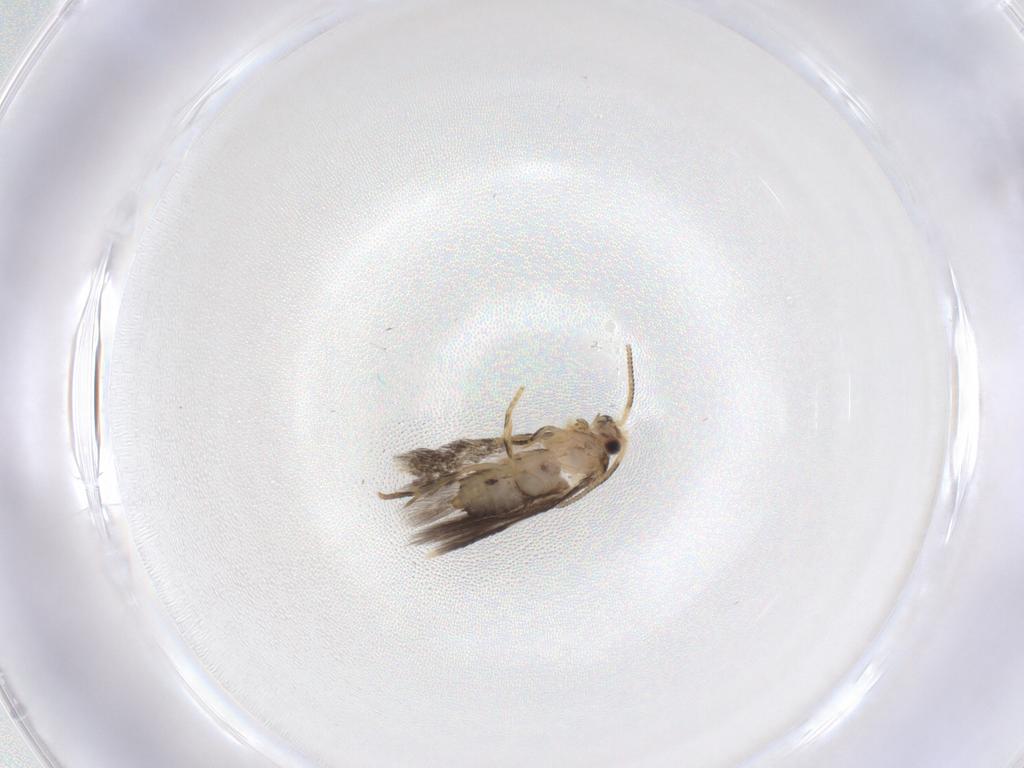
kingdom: Animalia
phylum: Arthropoda
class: Insecta
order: Lepidoptera
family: Nepticulidae
